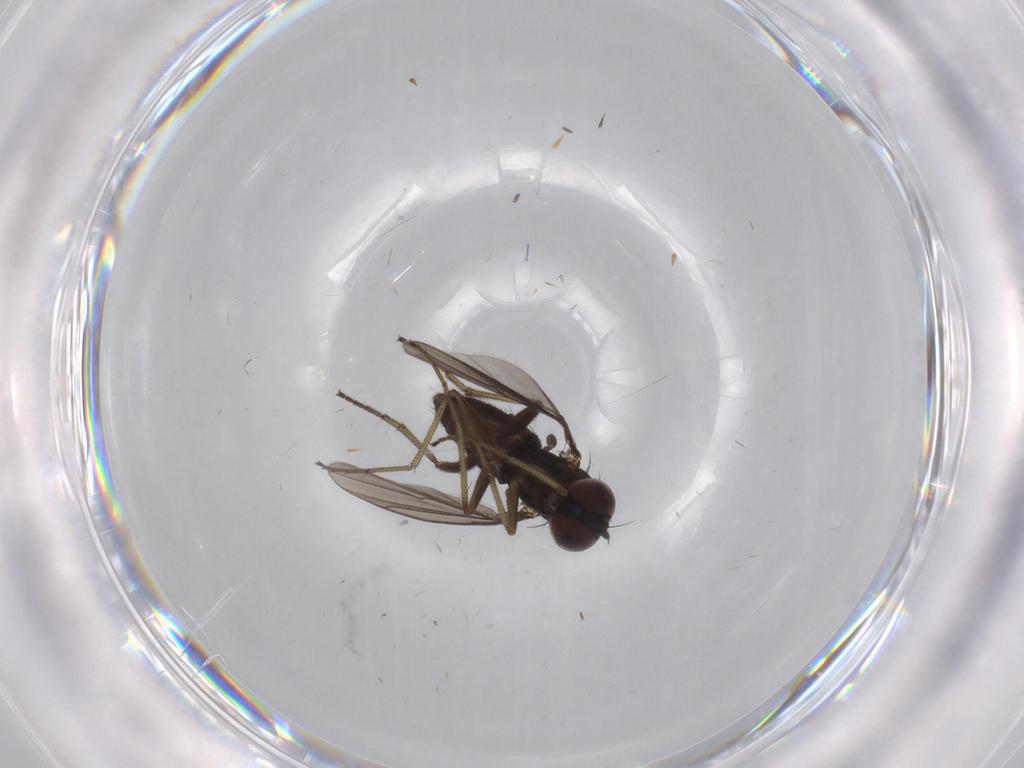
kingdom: Animalia
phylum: Arthropoda
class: Insecta
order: Diptera
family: Dolichopodidae
